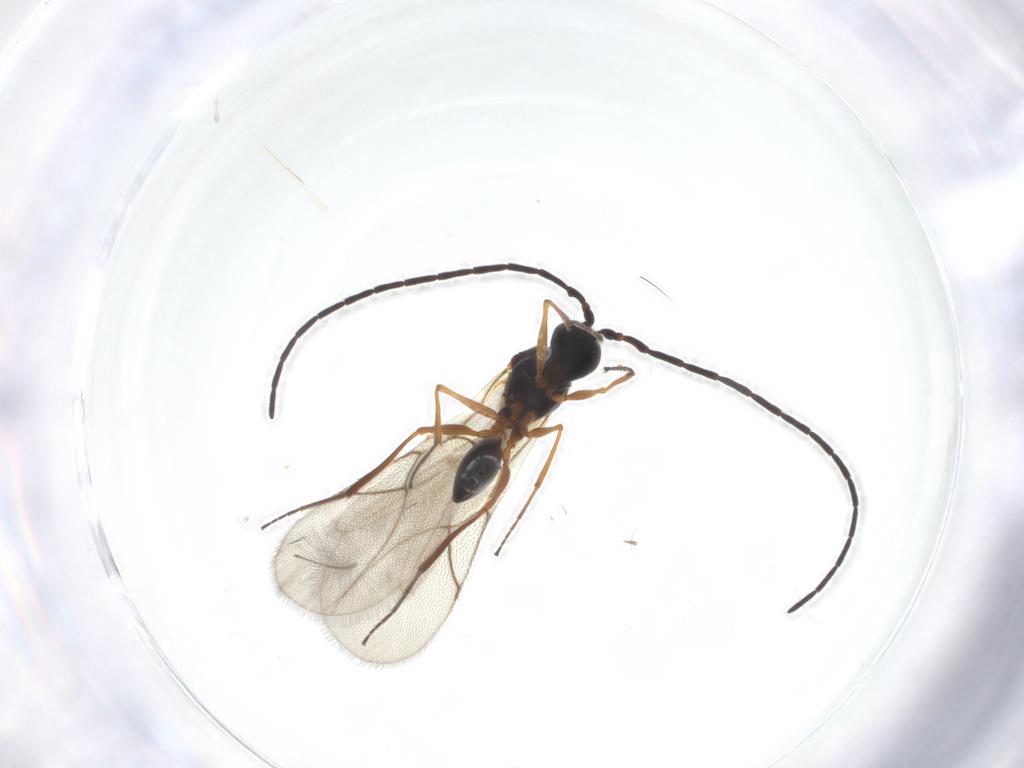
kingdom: Animalia
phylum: Arthropoda
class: Insecta
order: Hymenoptera
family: Figitidae
